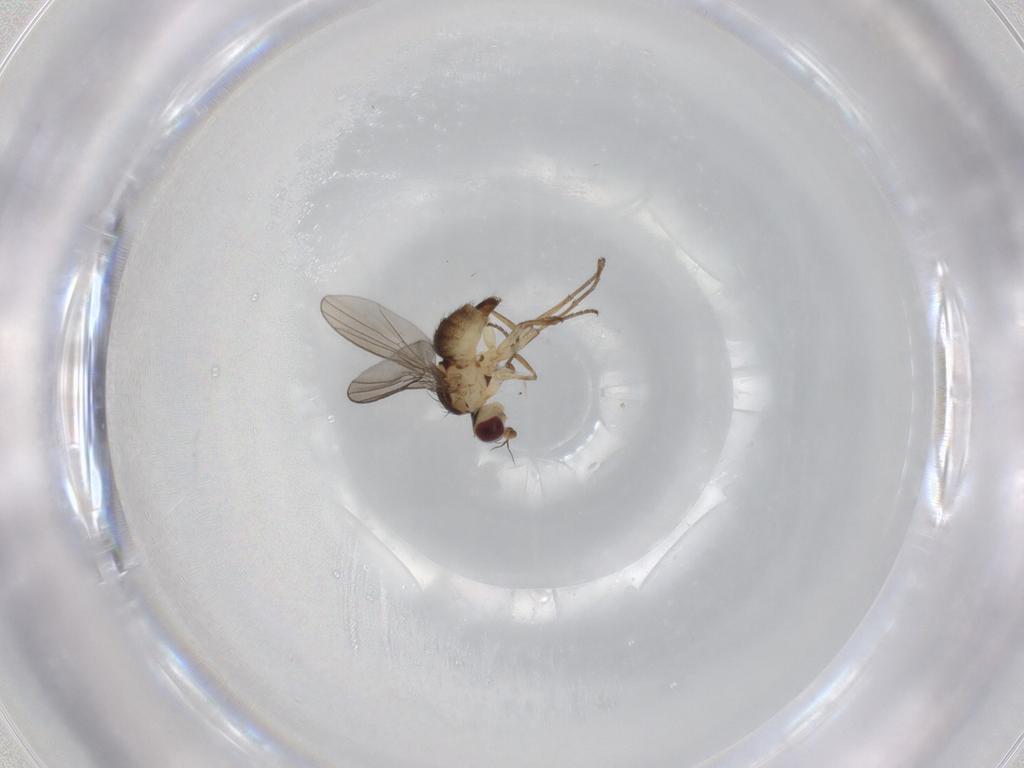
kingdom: Animalia
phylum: Arthropoda
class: Insecta
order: Diptera
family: Agromyzidae
